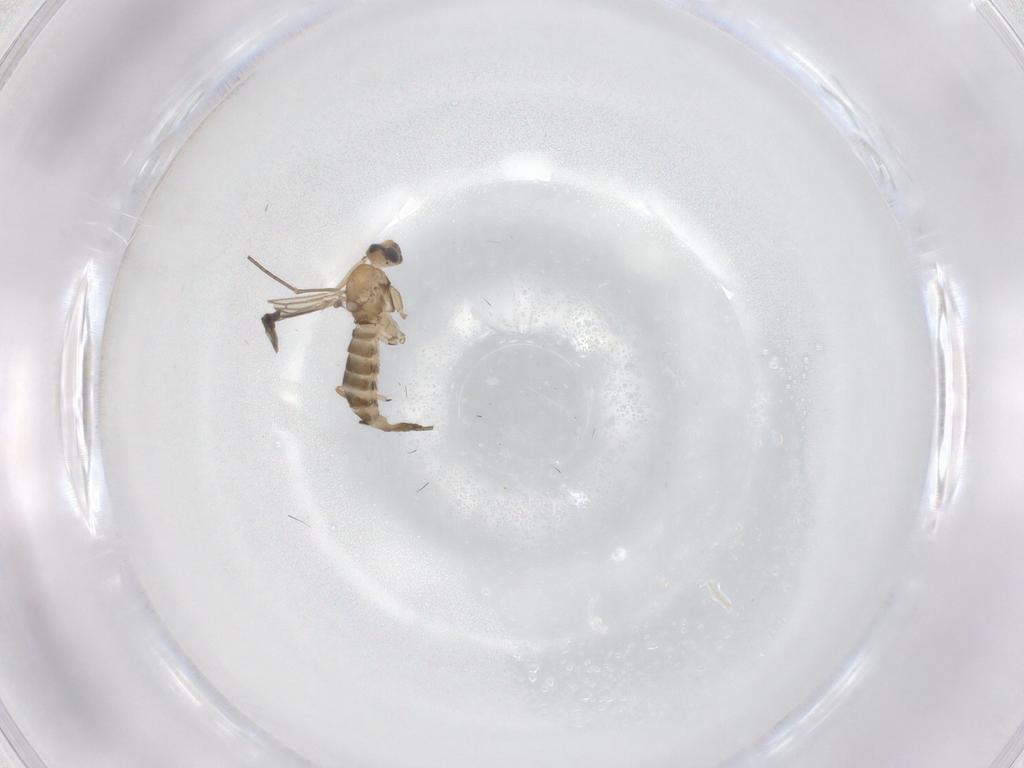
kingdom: Animalia
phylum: Arthropoda
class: Insecta
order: Diptera
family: Sciaridae
